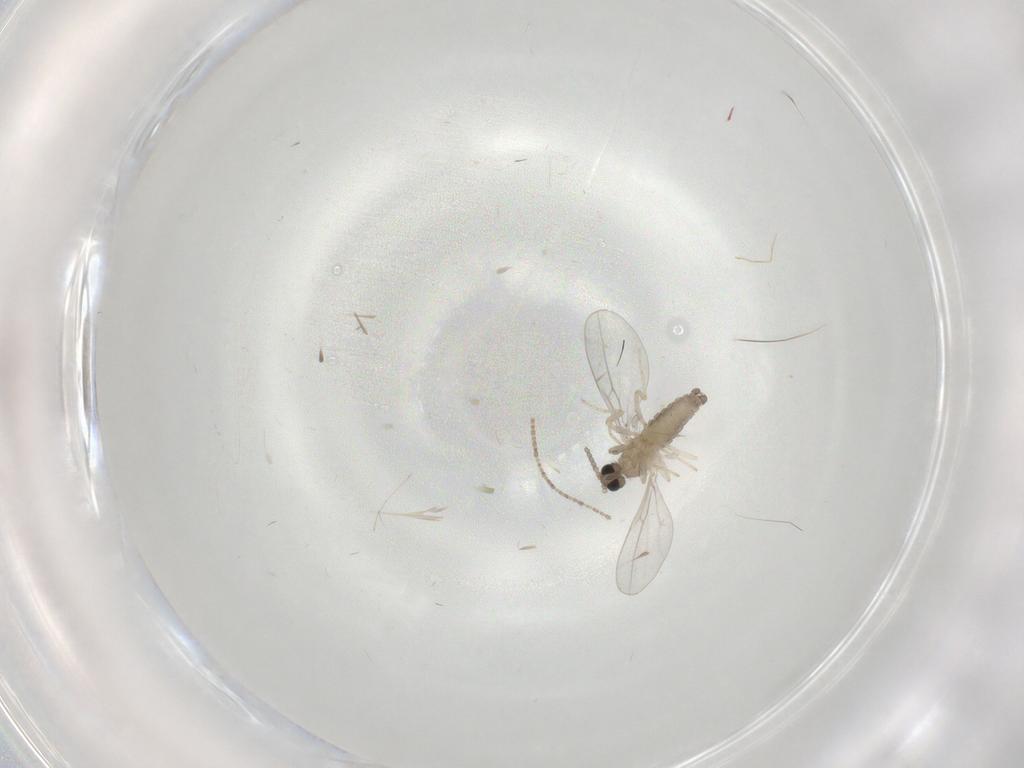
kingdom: Animalia
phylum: Arthropoda
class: Insecta
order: Diptera
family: Cecidomyiidae
